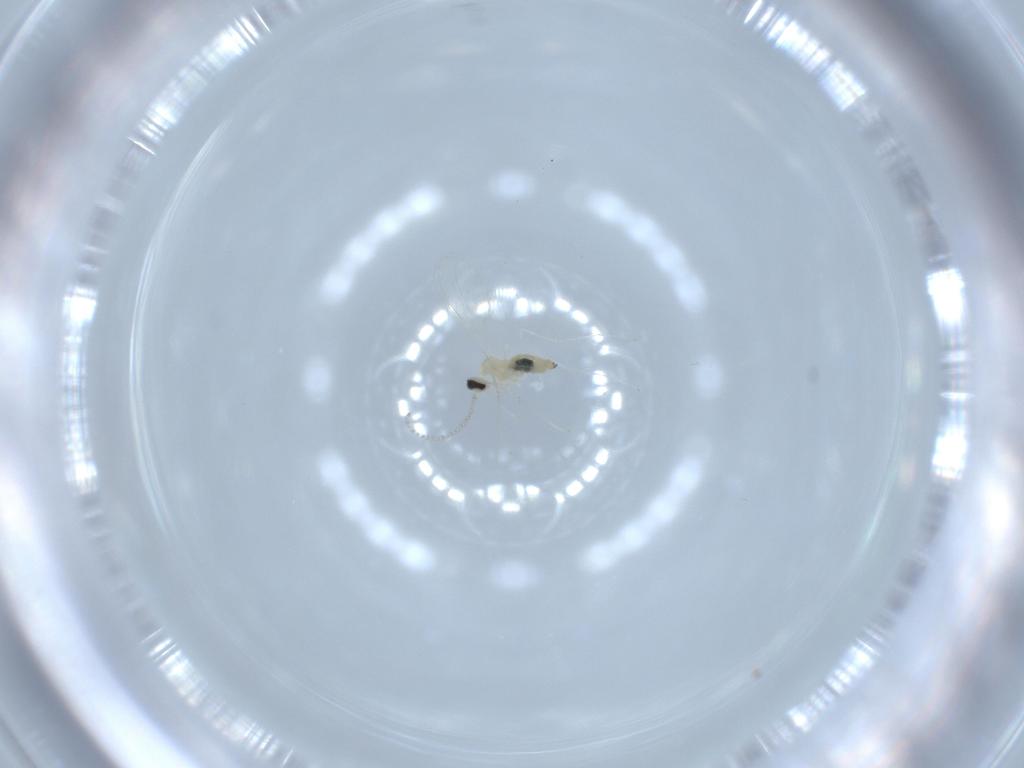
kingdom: Animalia
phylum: Arthropoda
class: Insecta
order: Diptera
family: Cecidomyiidae
